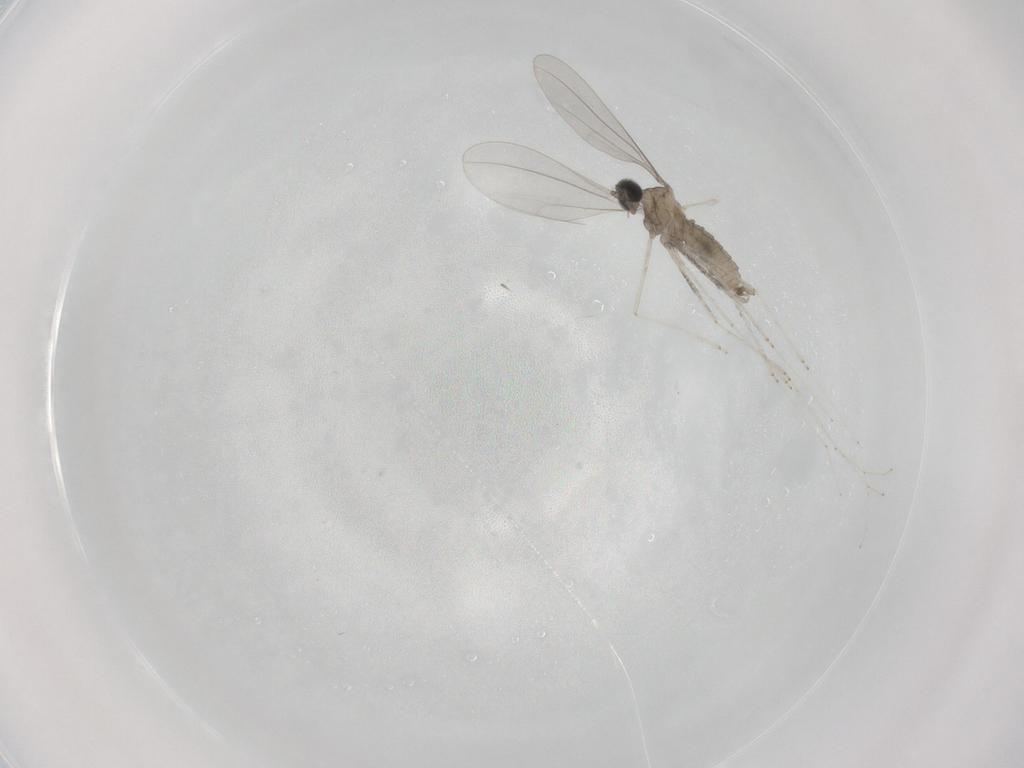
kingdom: Animalia
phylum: Arthropoda
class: Insecta
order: Diptera
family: Cecidomyiidae
